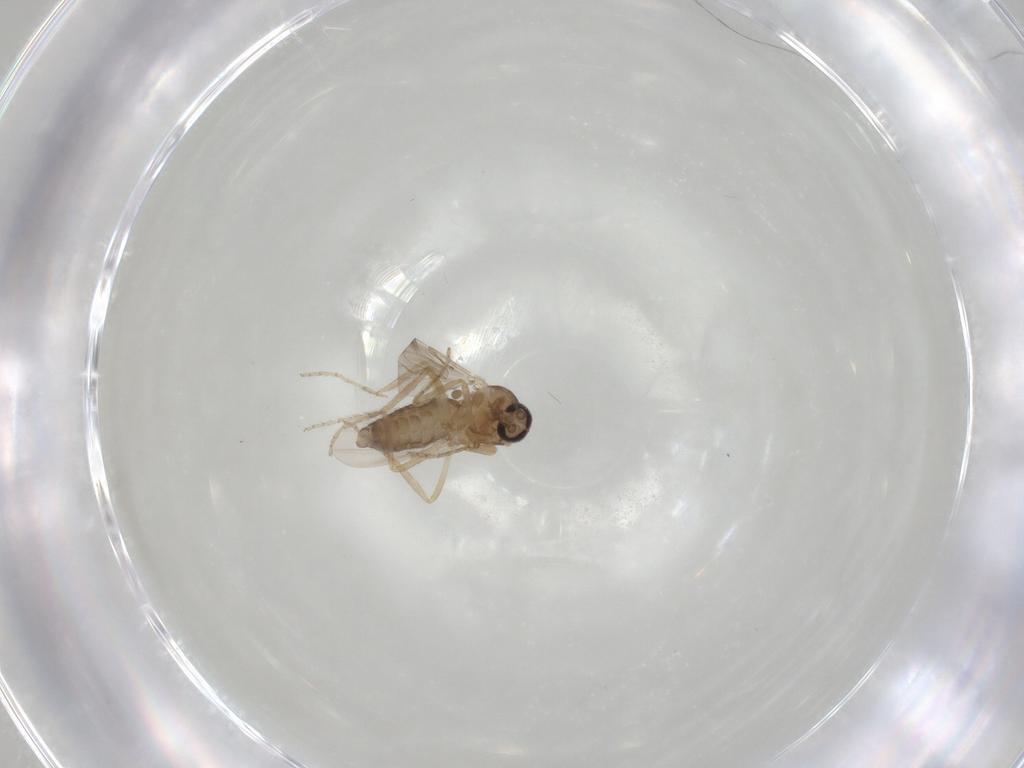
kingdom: Animalia
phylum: Arthropoda
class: Insecta
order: Diptera
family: Ceratopogonidae
